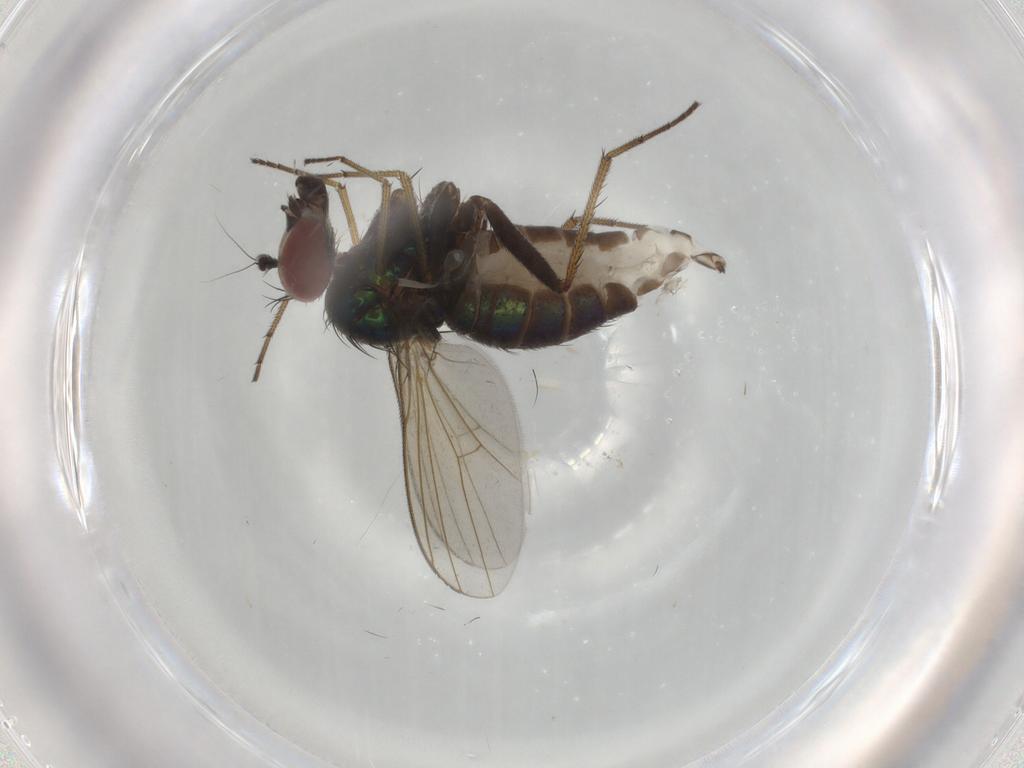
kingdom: Animalia
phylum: Arthropoda
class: Insecta
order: Diptera
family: Dolichopodidae
